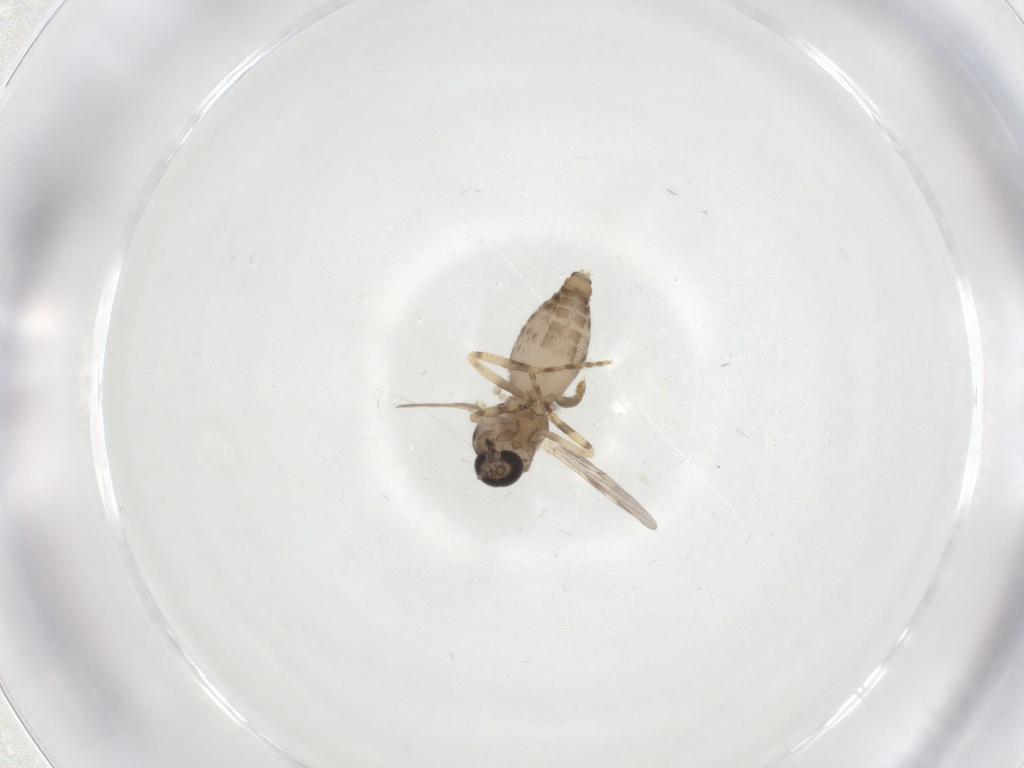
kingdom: Animalia
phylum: Arthropoda
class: Insecta
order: Diptera
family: Ceratopogonidae
